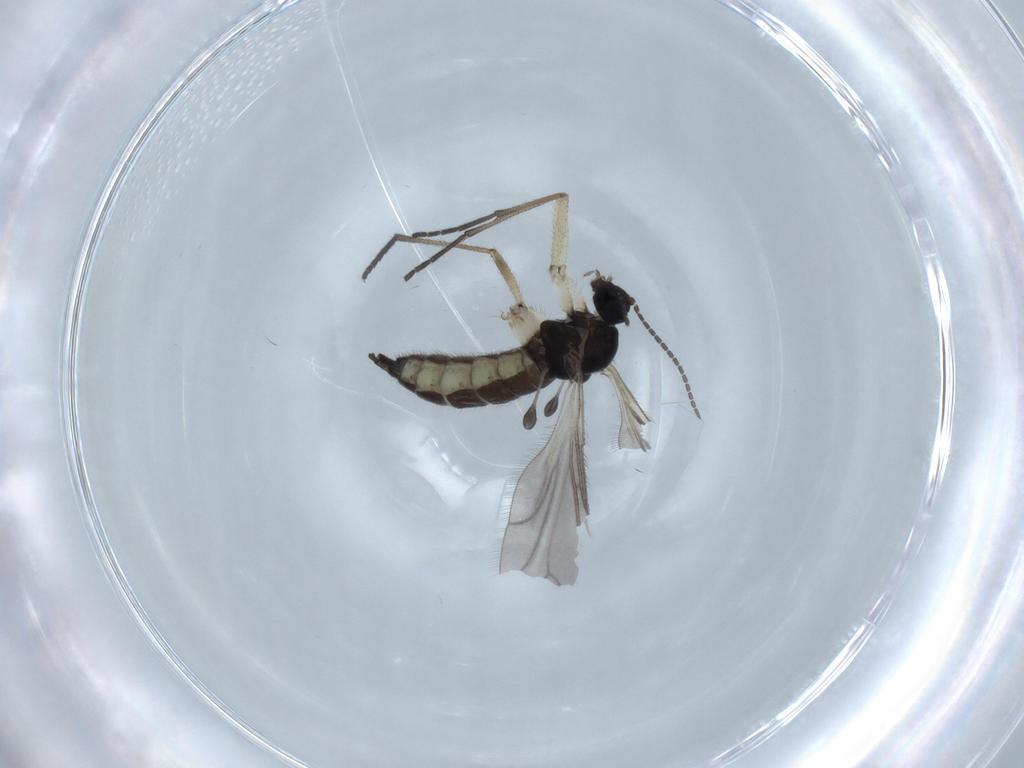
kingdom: Animalia
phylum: Arthropoda
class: Insecta
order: Diptera
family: Sciaridae
